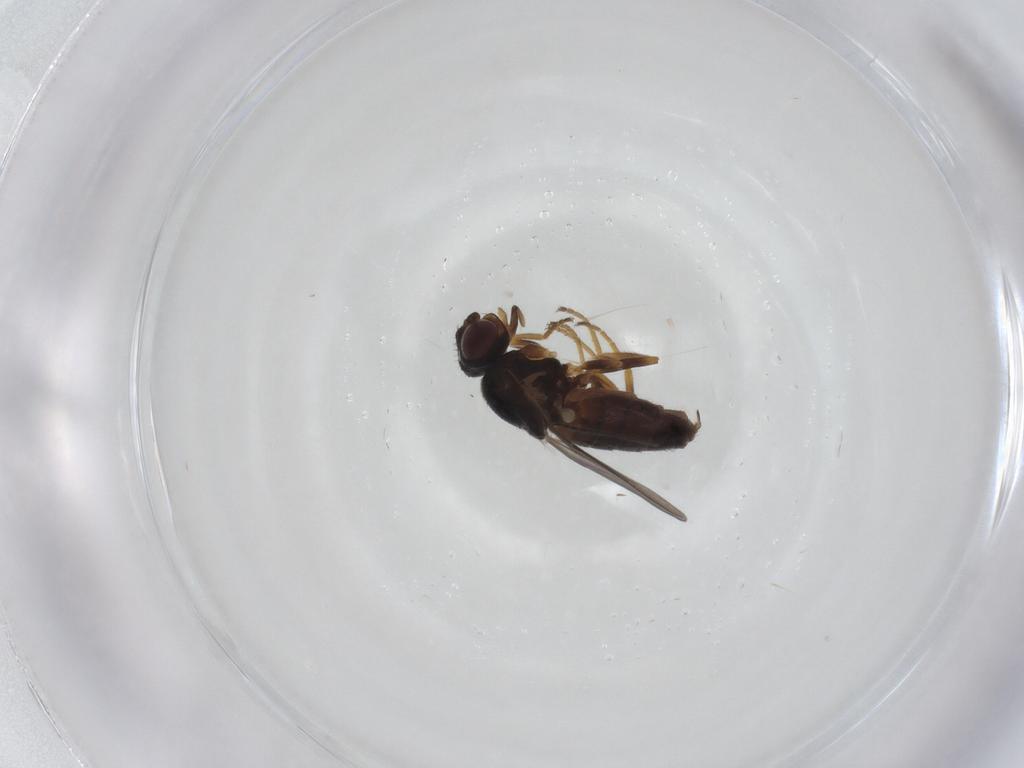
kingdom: Animalia
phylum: Arthropoda
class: Insecta
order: Diptera
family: Chloropidae
